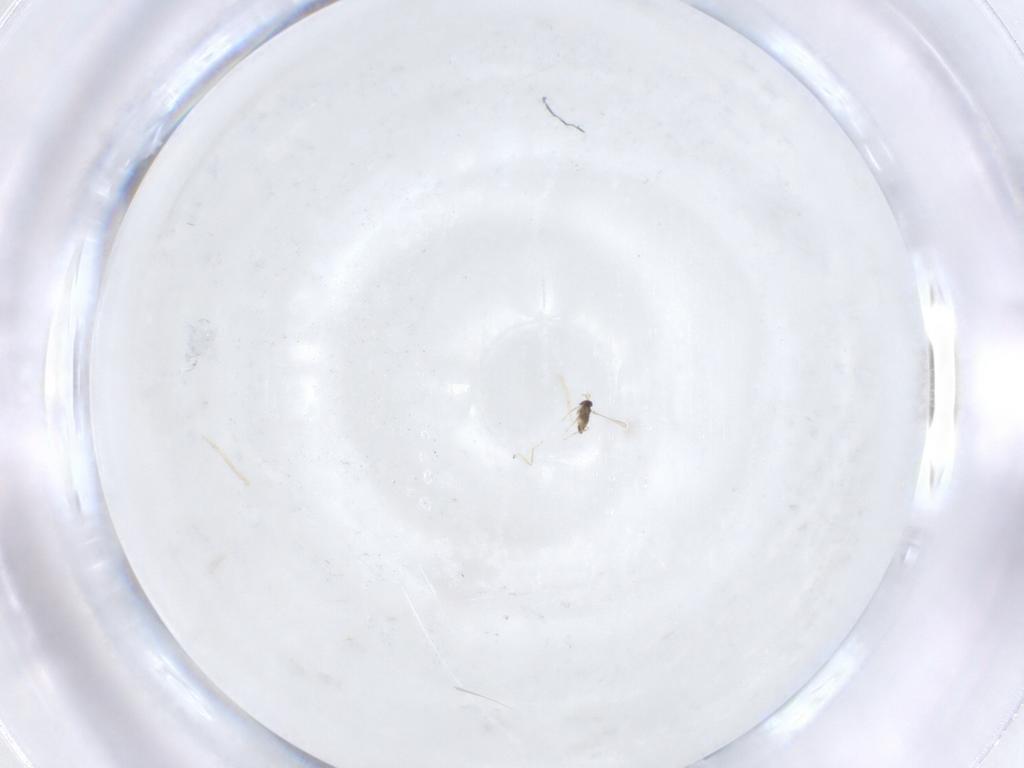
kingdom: Animalia
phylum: Arthropoda
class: Insecta
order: Hymenoptera
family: Mymaridae
